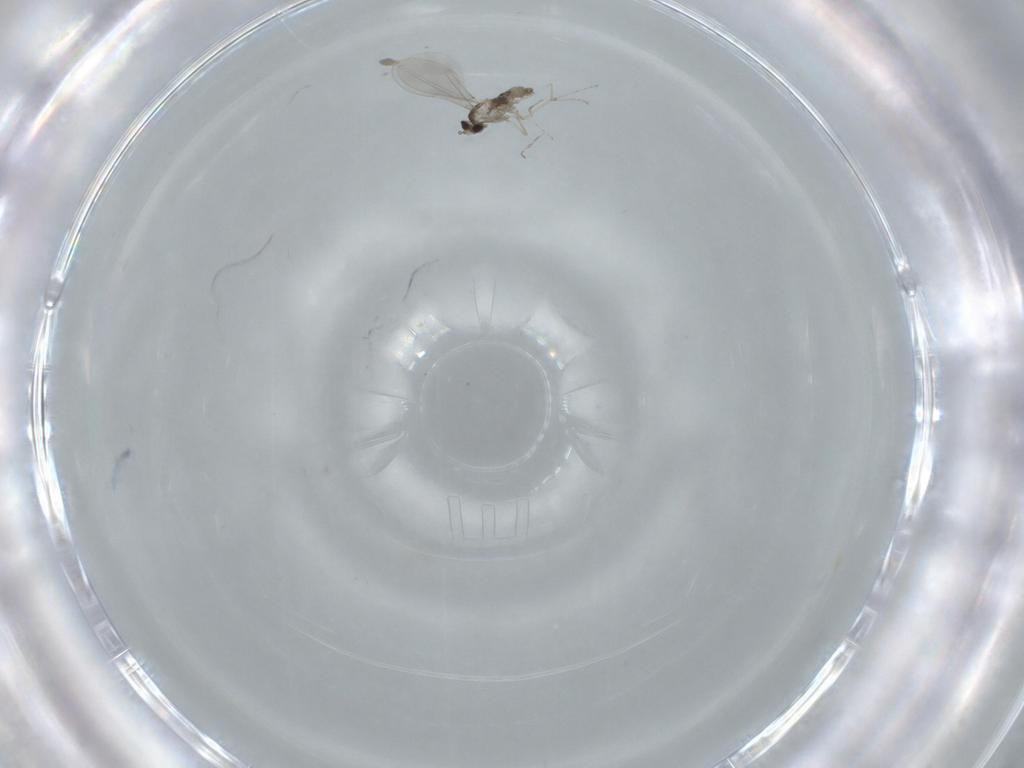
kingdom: Animalia
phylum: Arthropoda
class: Insecta
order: Diptera
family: Cecidomyiidae
